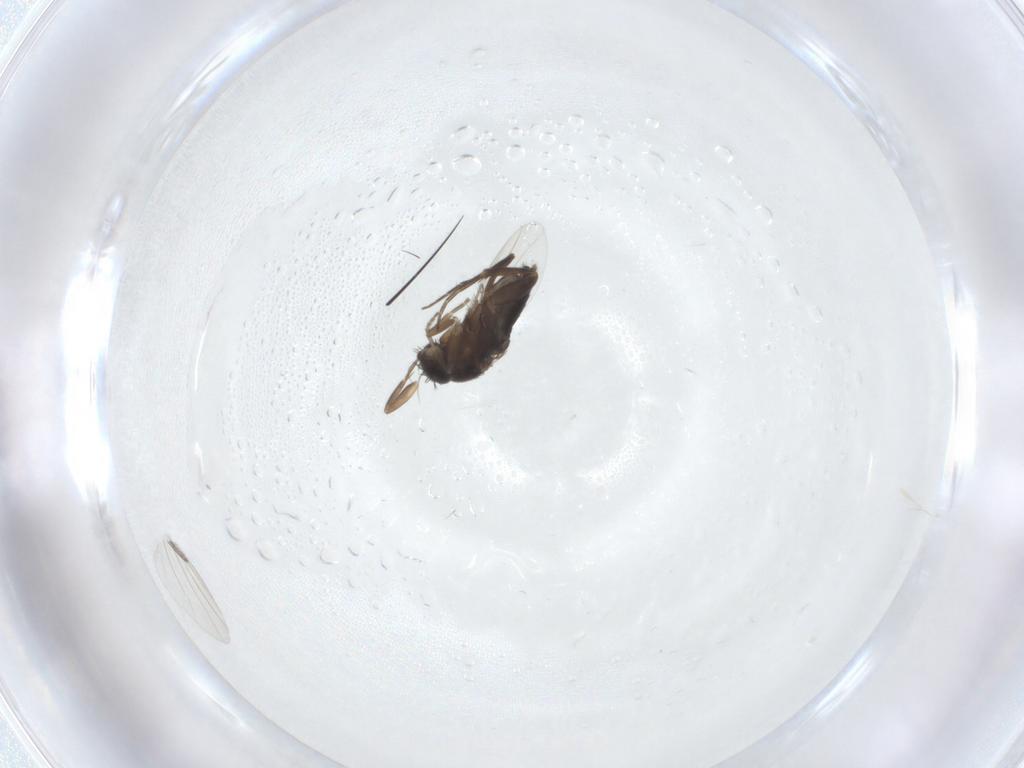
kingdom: Animalia
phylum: Arthropoda
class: Insecta
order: Diptera
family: Phoridae
